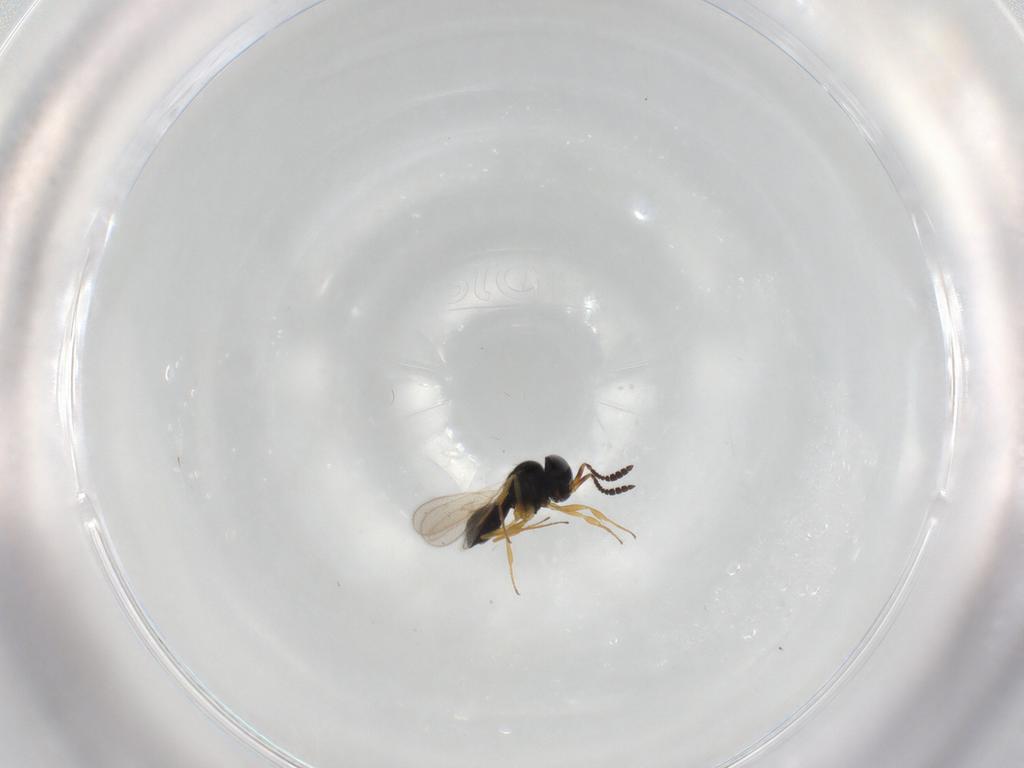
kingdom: Animalia
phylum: Arthropoda
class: Insecta
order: Hymenoptera
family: Scelionidae
